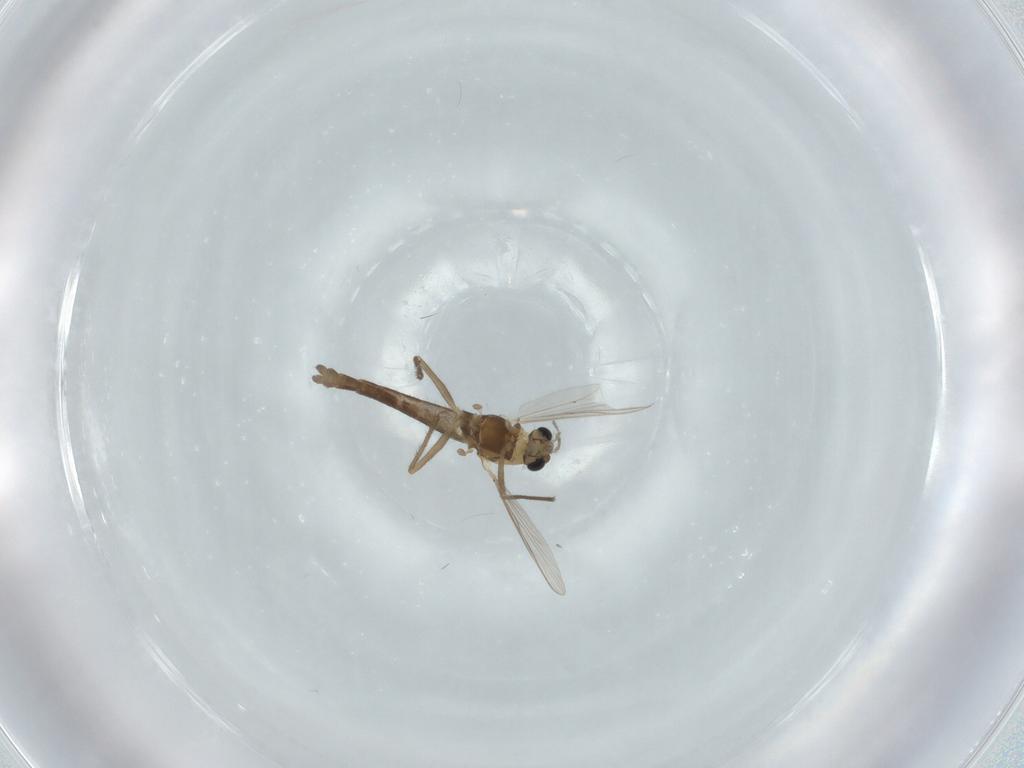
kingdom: Animalia
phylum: Arthropoda
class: Insecta
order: Diptera
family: Chironomidae
